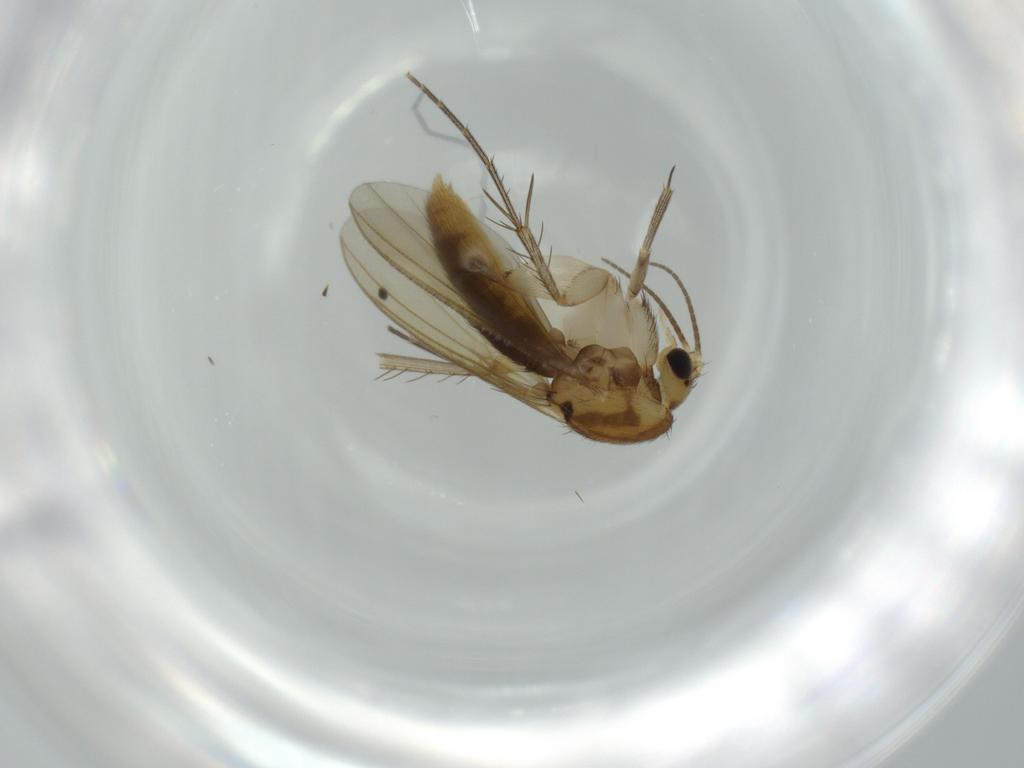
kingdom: Animalia
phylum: Arthropoda
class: Insecta
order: Diptera
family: Mycetophilidae
